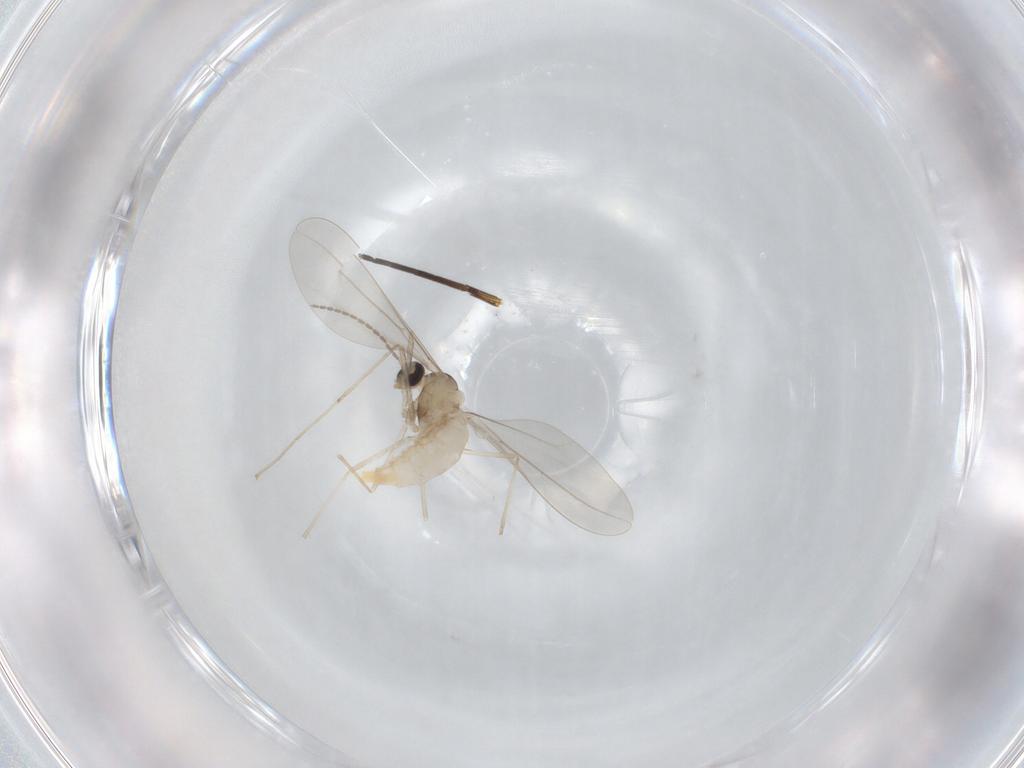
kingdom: Animalia
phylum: Arthropoda
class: Insecta
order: Diptera
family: Dolichopodidae
